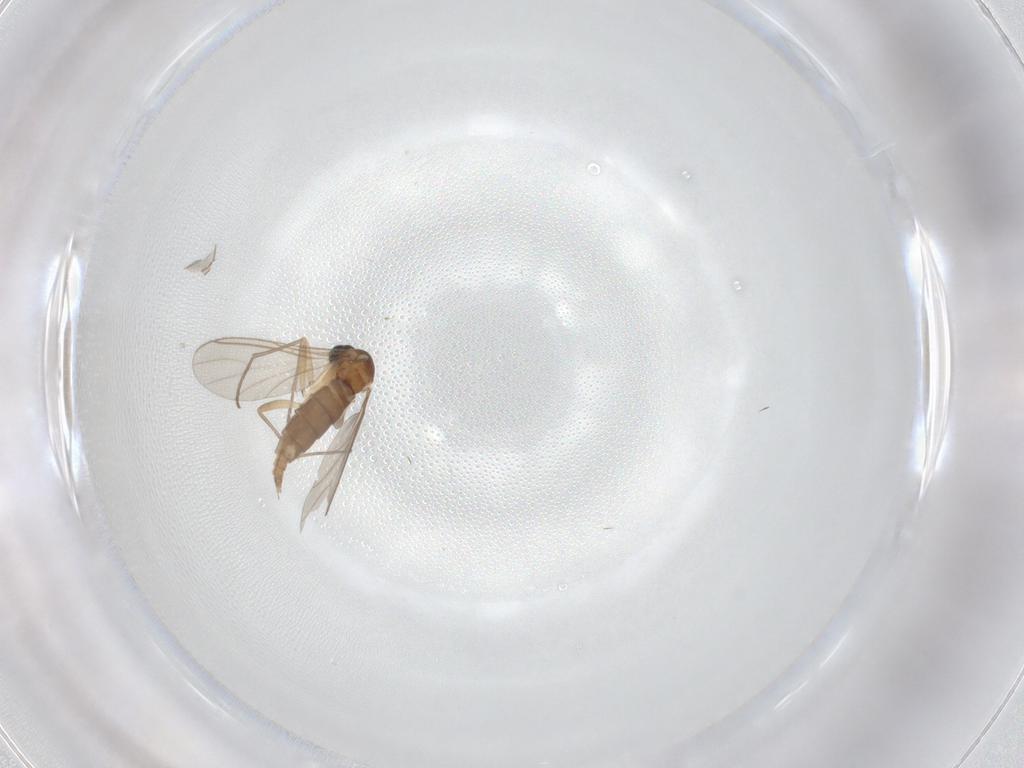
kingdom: Animalia
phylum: Arthropoda
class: Insecta
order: Diptera
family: Sciaridae
